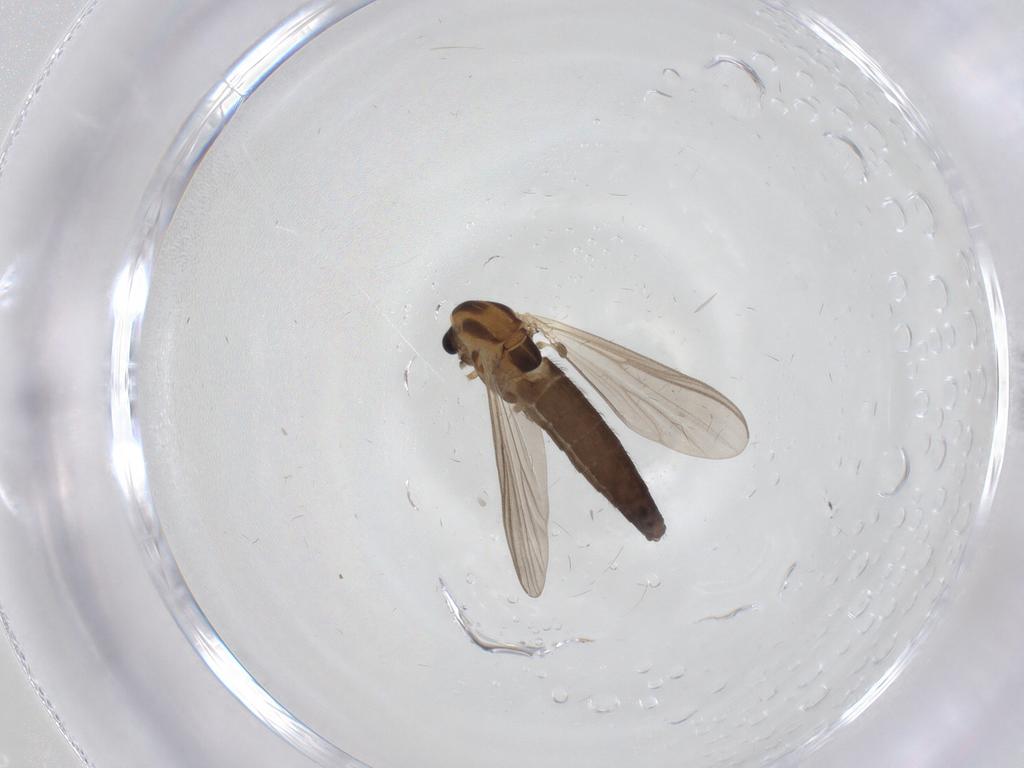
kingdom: Animalia
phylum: Arthropoda
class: Insecta
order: Diptera
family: Chironomidae
